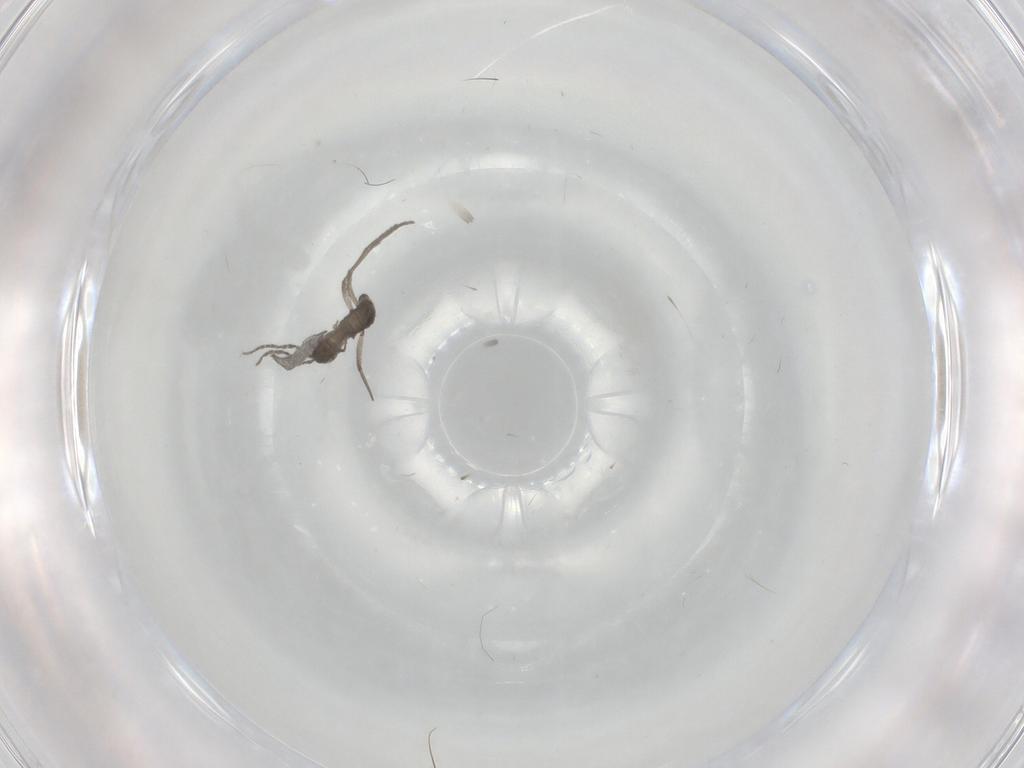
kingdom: Animalia
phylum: Arthropoda
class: Insecta
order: Diptera
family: Sciaridae
